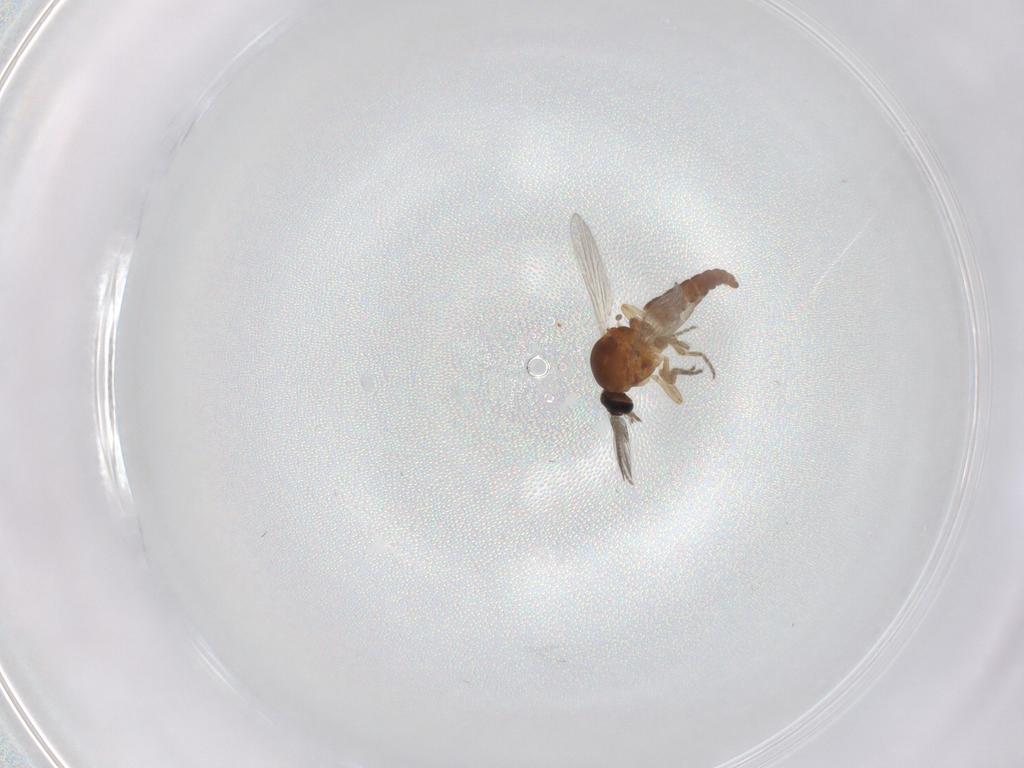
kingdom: Animalia
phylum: Arthropoda
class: Insecta
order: Diptera
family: Ceratopogonidae
